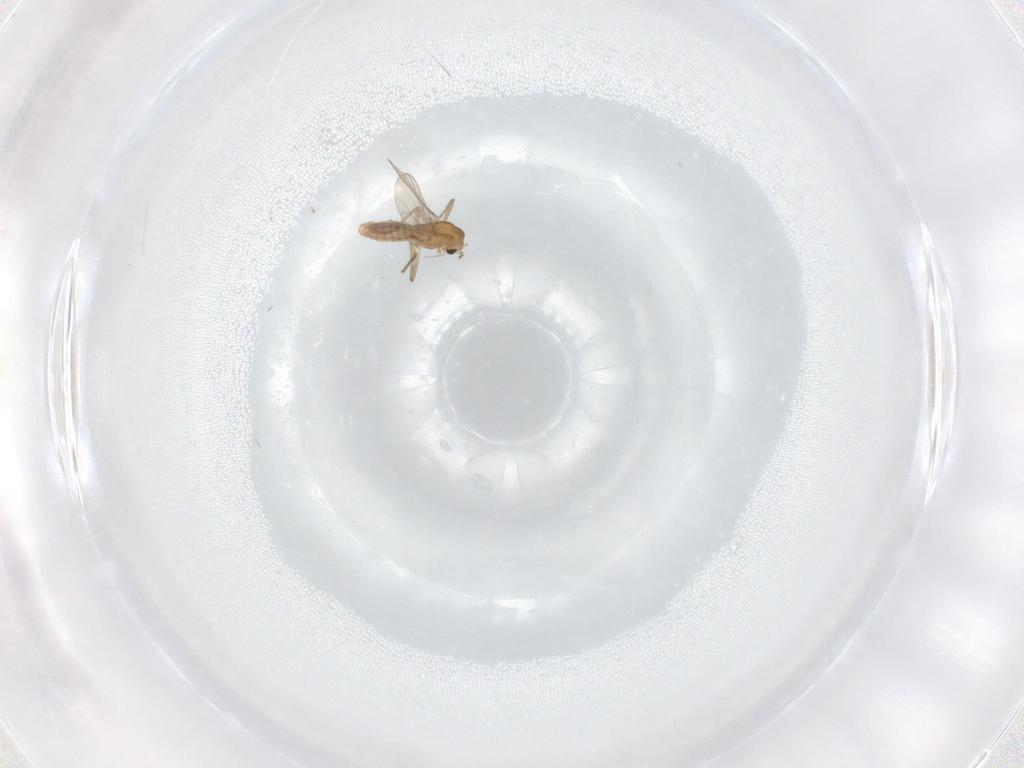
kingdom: Animalia
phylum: Arthropoda
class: Insecta
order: Diptera
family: Chironomidae
